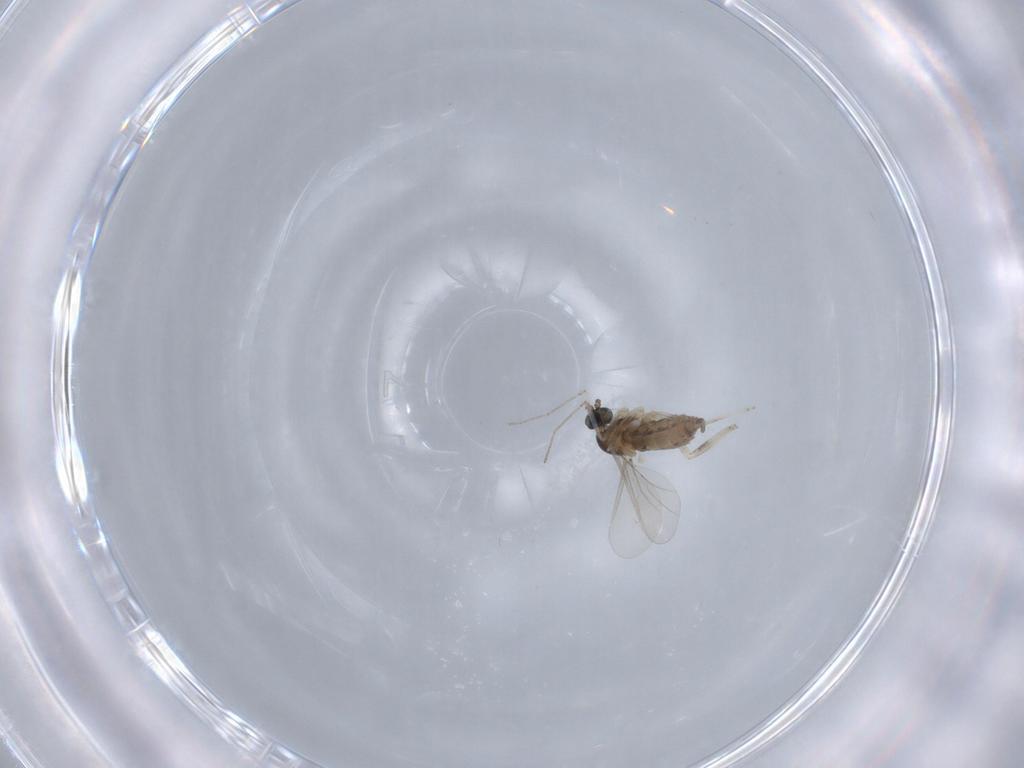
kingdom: Animalia
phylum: Arthropoda
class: Insecta
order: Diptera
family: Cecidomyiidae
